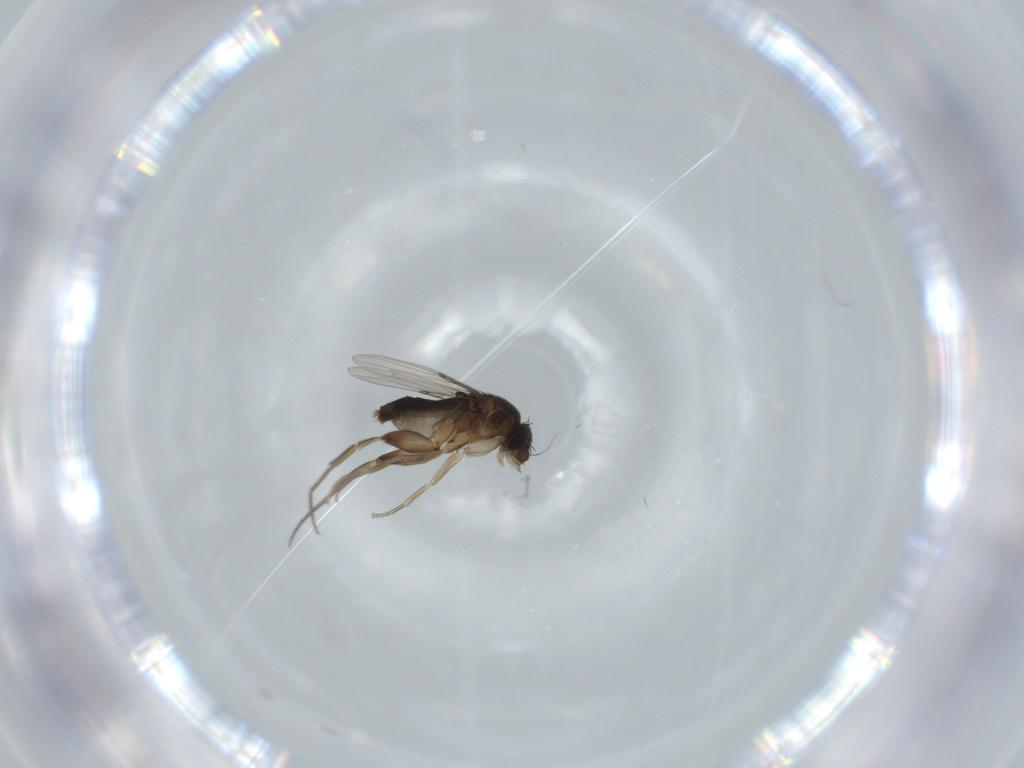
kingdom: Animalia
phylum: Arthropoda
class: Insecta
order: Diptera
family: Phoridae
